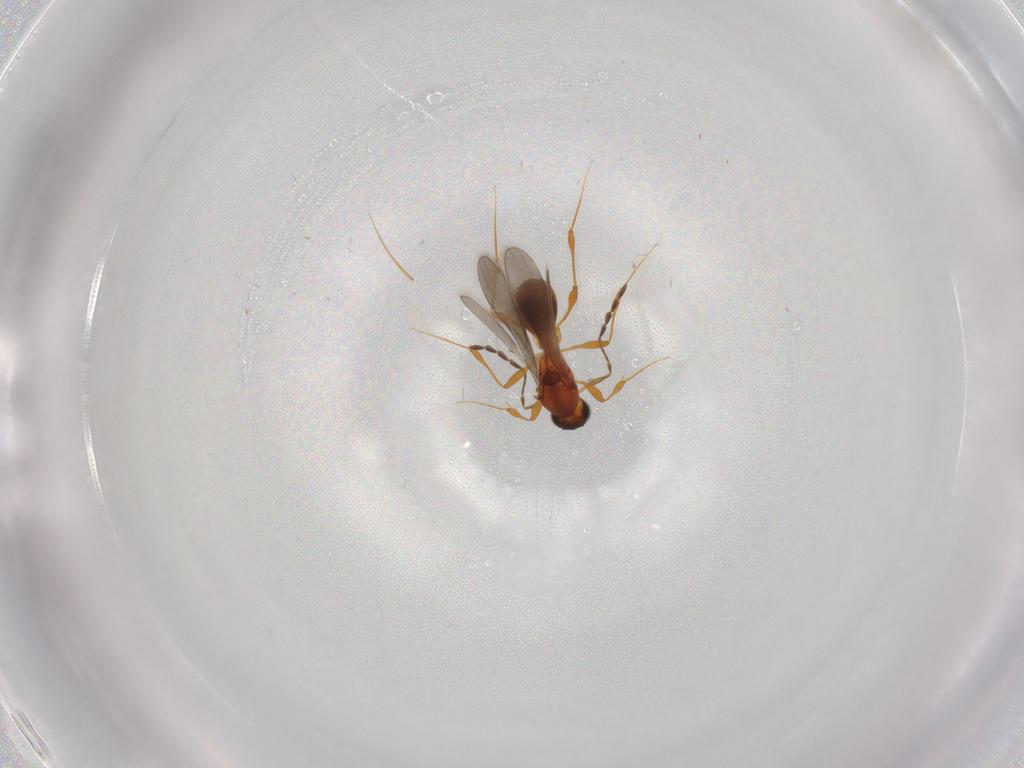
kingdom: Animalia
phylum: Arthropoda
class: Insecta
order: Hymenoptera
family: Platygastridae
